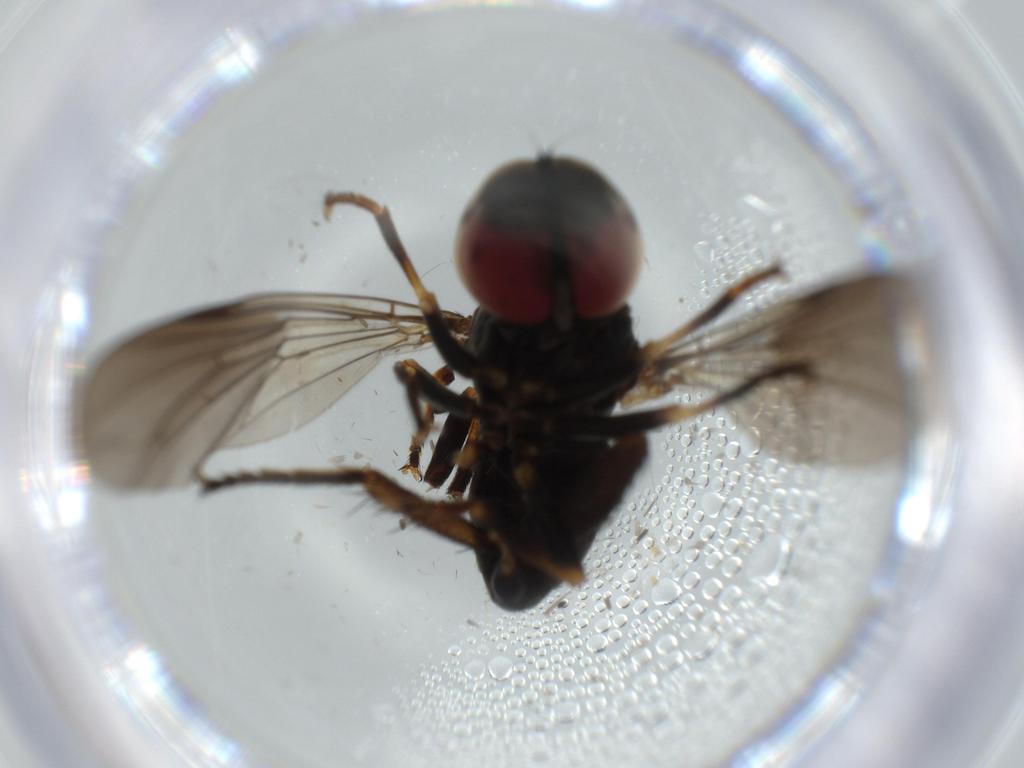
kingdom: Animalia
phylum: Arthropoda
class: Insecta
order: Diptera
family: Pipunculidae
